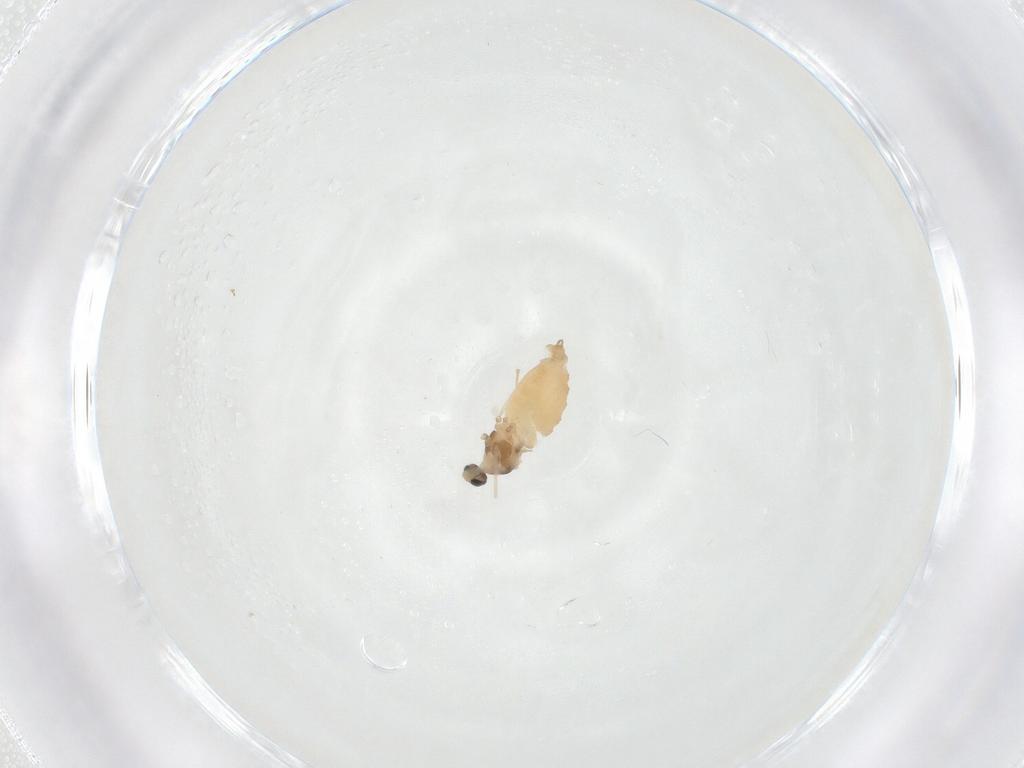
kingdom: Animalia
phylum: Arthropoda
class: Insecta
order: Diptera
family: Cecidomyiidae
